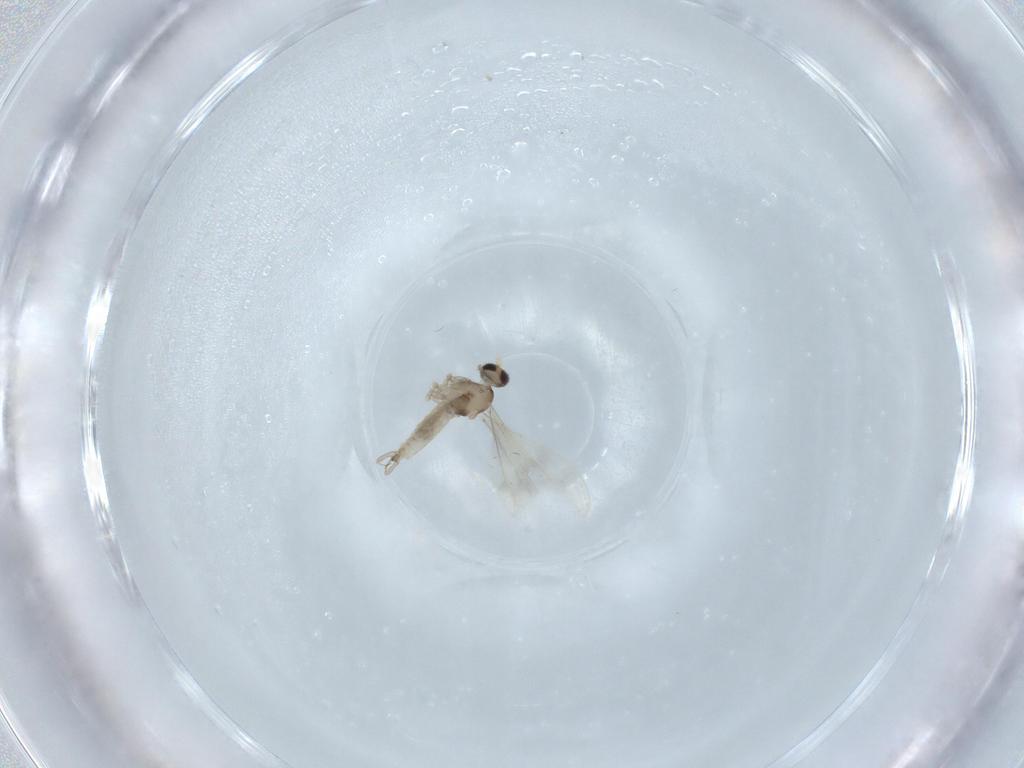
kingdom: Animalia
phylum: Arthropoda
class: Insecta
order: Diptera
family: Cecidomyiidae
